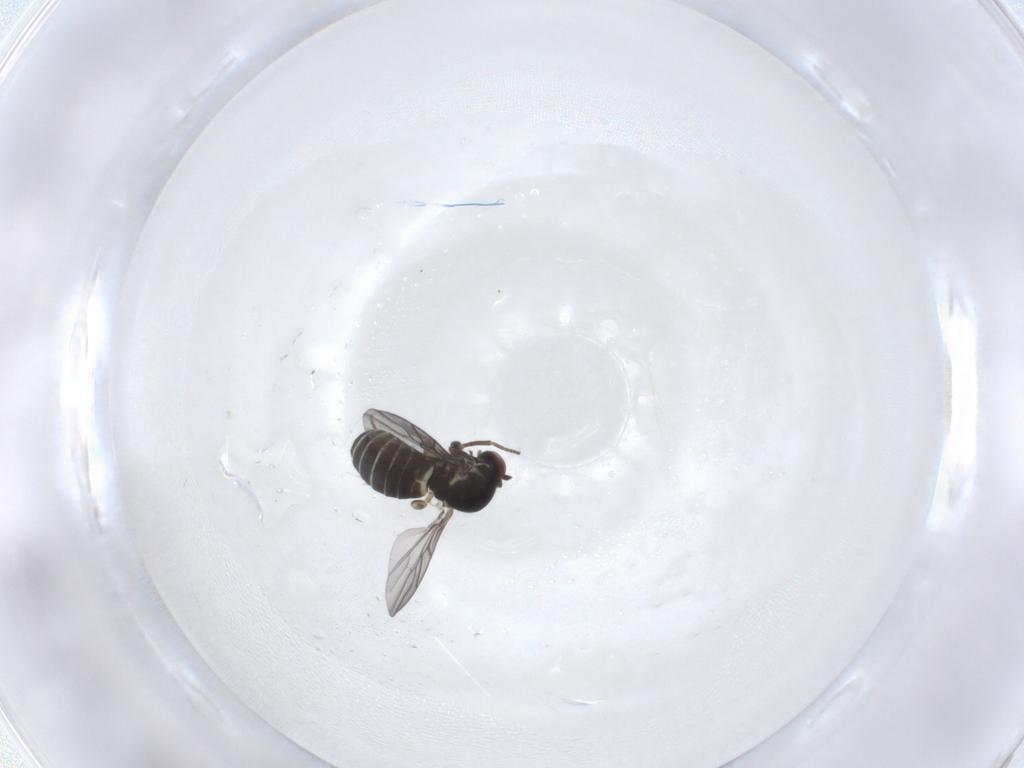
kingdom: Animalia
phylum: Arthropoda
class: Insecta
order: Diptera
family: Mythicomyiidae
